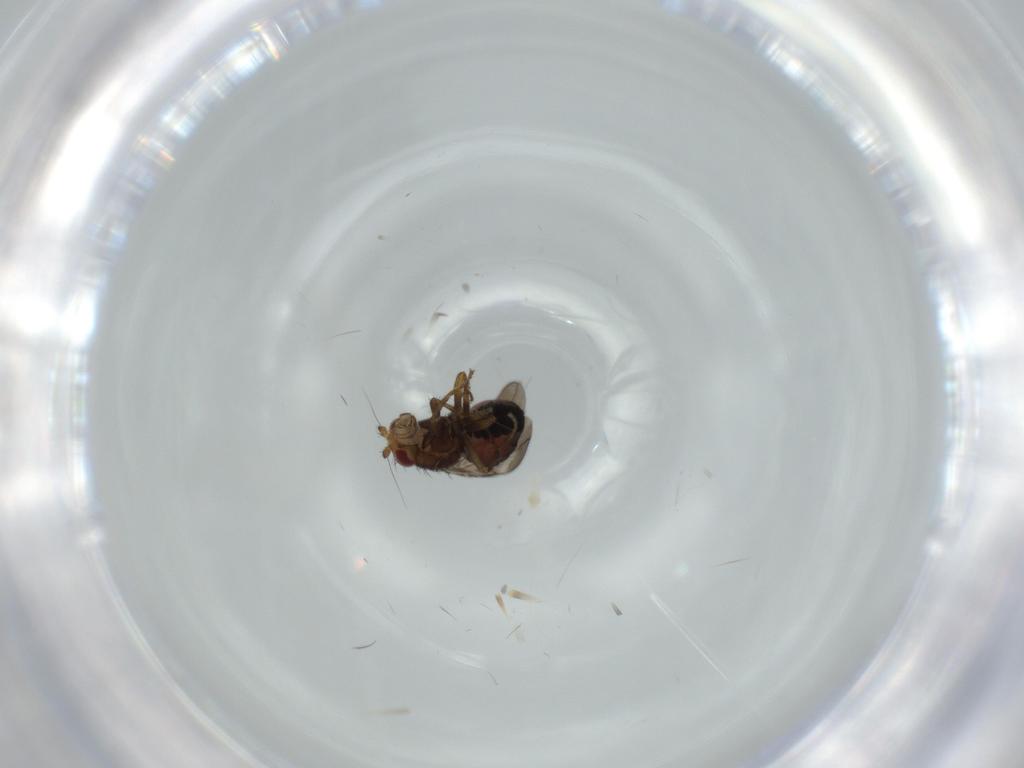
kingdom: Animalia
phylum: Arthropoda
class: Insecta
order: Diptera
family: Sphaeroceridae
